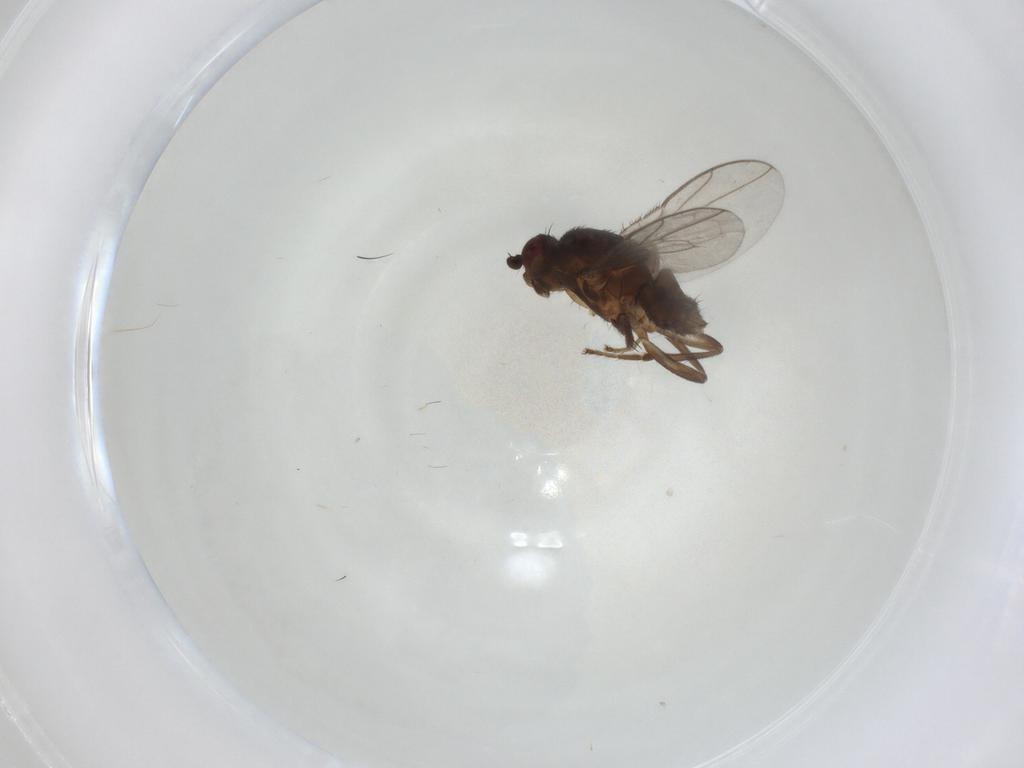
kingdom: Animalia
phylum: Arthropoda
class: Insecta
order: Diptera
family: Sphaeroceridae
